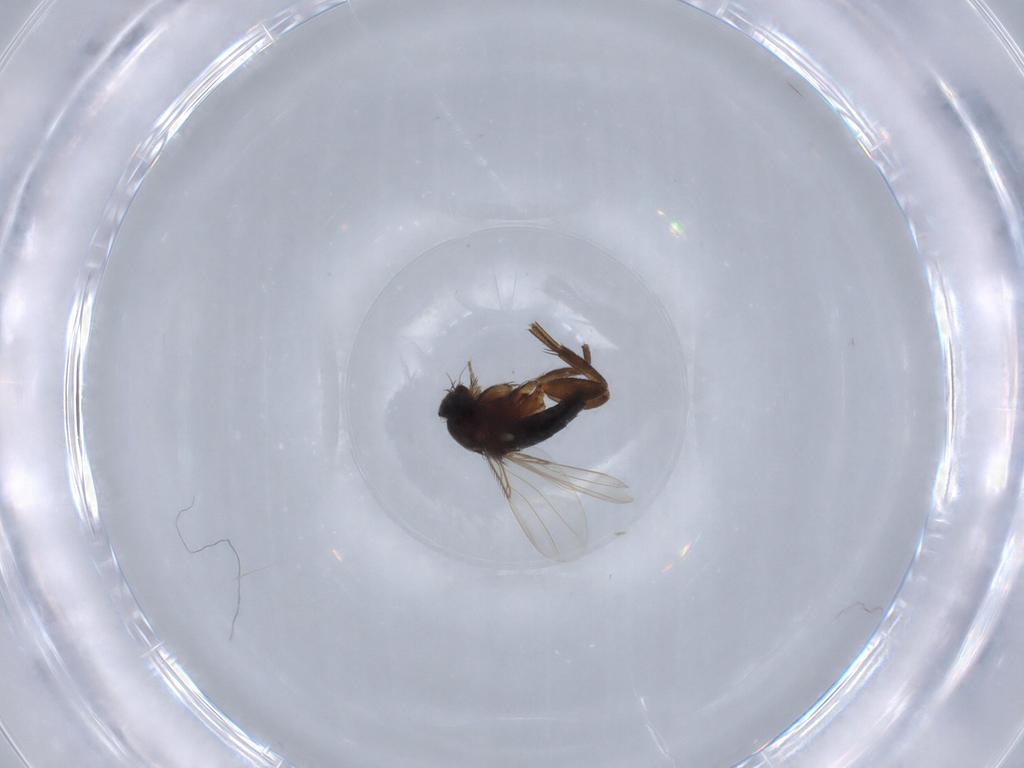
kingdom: Animalia
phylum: Arthropoda
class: Insecta
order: Diptera
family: Phoridae
